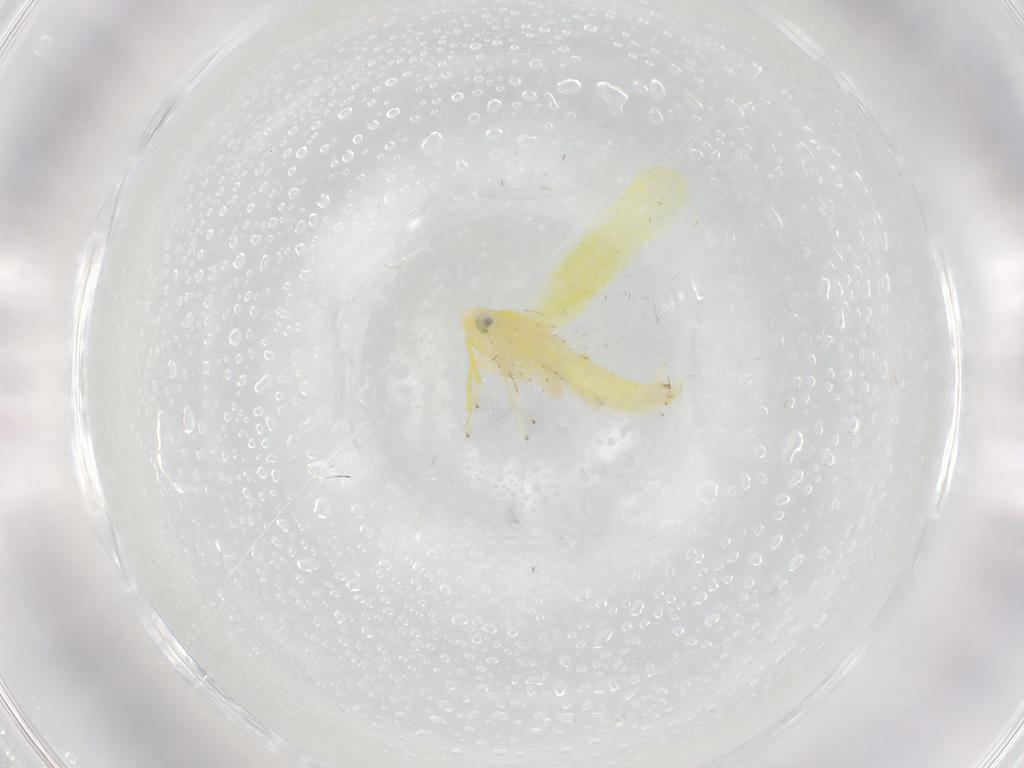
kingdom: Animalia
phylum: Arthropoda
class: Insecta
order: Hemiptera
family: Cicadellidae
